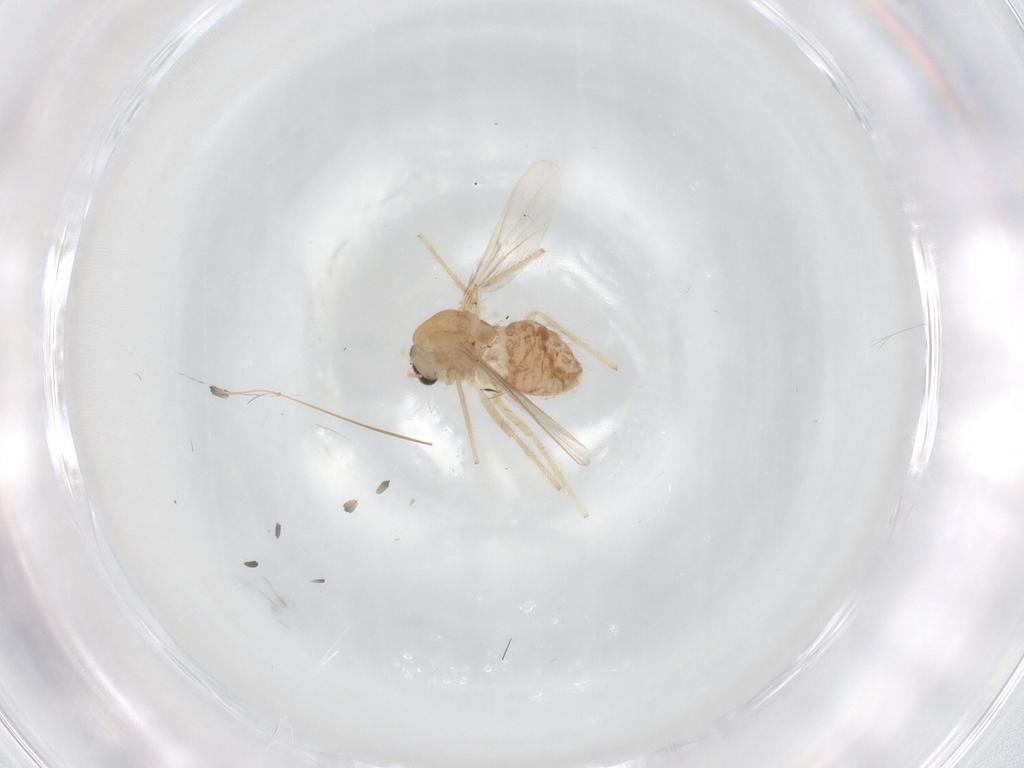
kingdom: Animalia
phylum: Arthropoda
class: Insecta
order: Diptera
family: Chironomidae
